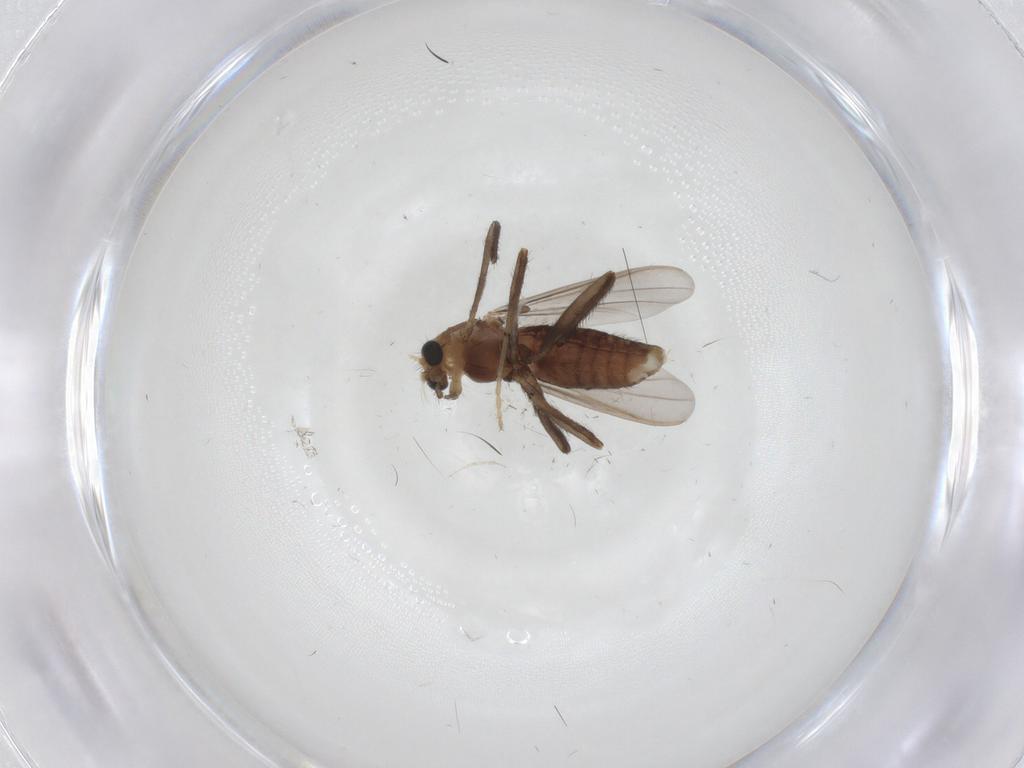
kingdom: Animalia
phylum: Arthropoda
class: Insecta
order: Diptera
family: Chironomidae
